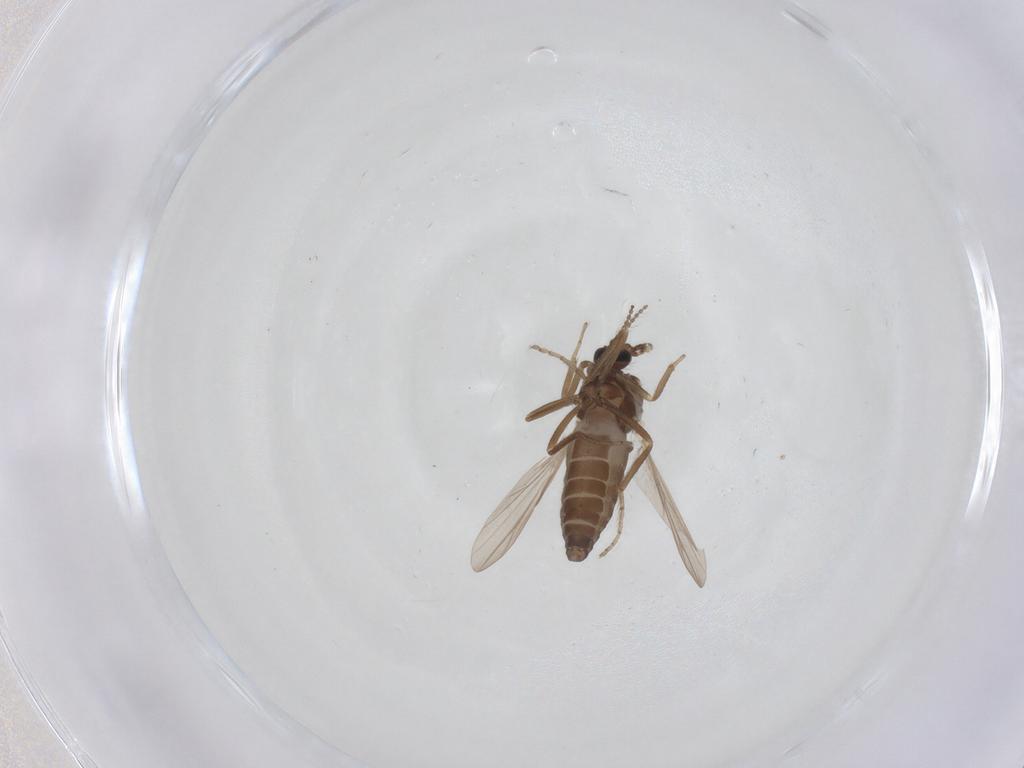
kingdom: Animalia
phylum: Arthropoda
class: Insecta
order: Diptera
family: Ceratopogonidae
